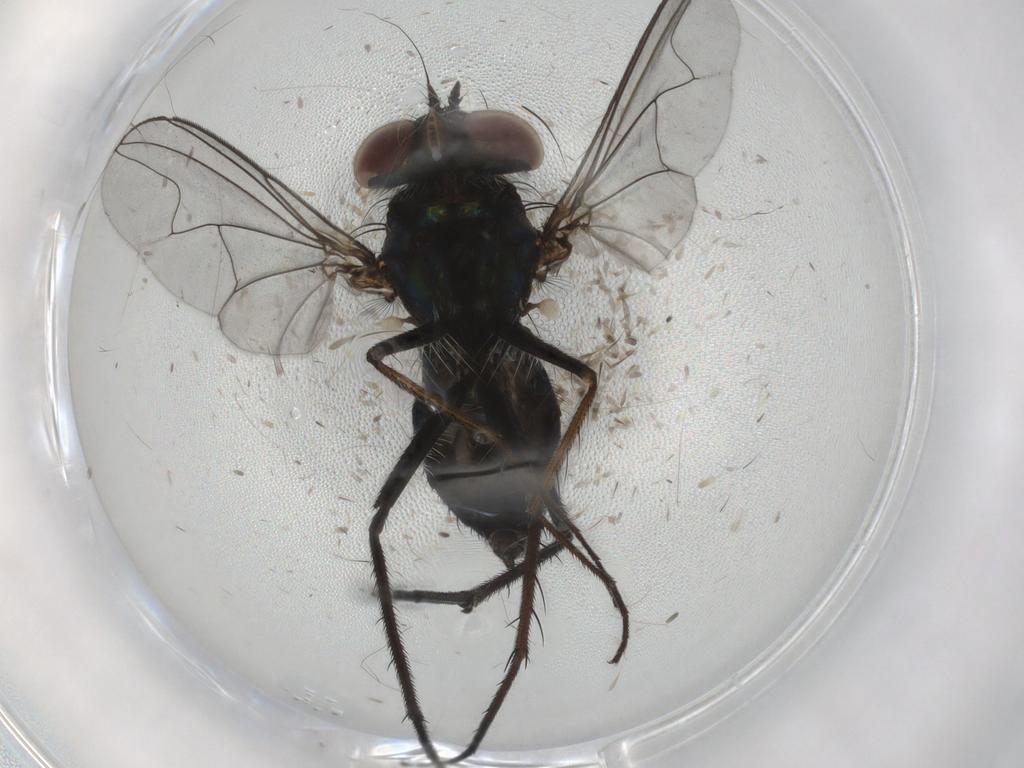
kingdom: Animalia
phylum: Arthropoda
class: Insecta
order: Diptera
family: Dolichopodidae
